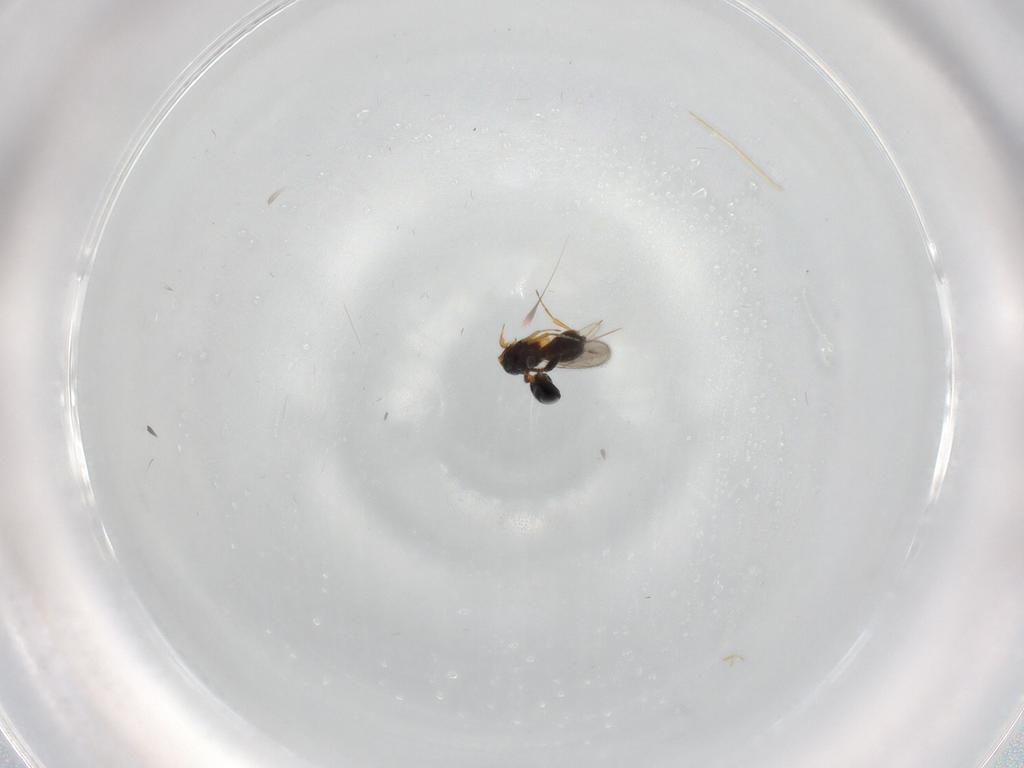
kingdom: Animalia
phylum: Arthropoda
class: Insecta
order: Hymenoptera
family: Scelionidae
